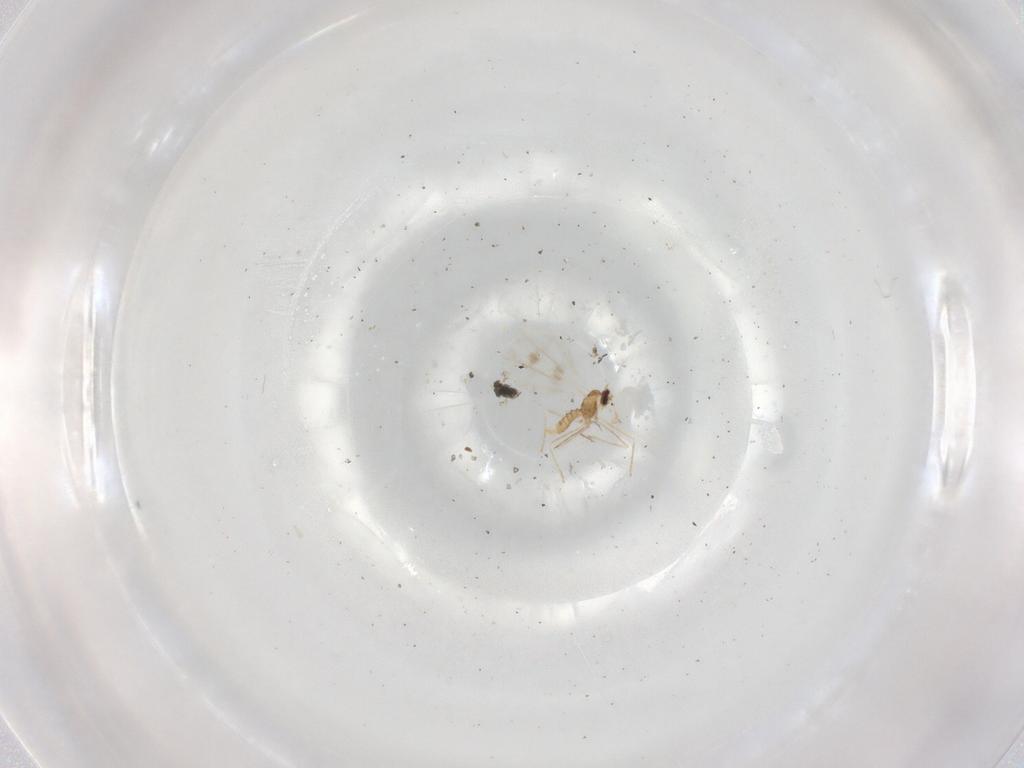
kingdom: Animalia
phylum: Arthropoda
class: Insecta
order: Diptera
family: Cecidomyiidae
